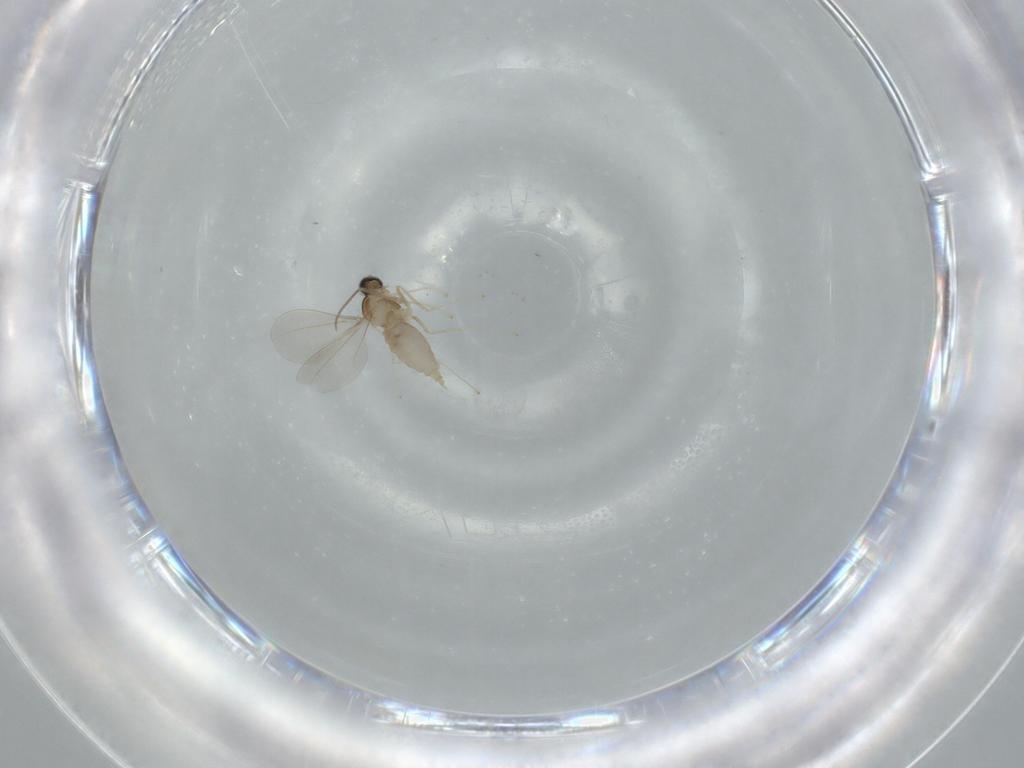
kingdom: Animalia
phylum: Arthropoda
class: Insecta
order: Diptera
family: Cecidomyiidae
